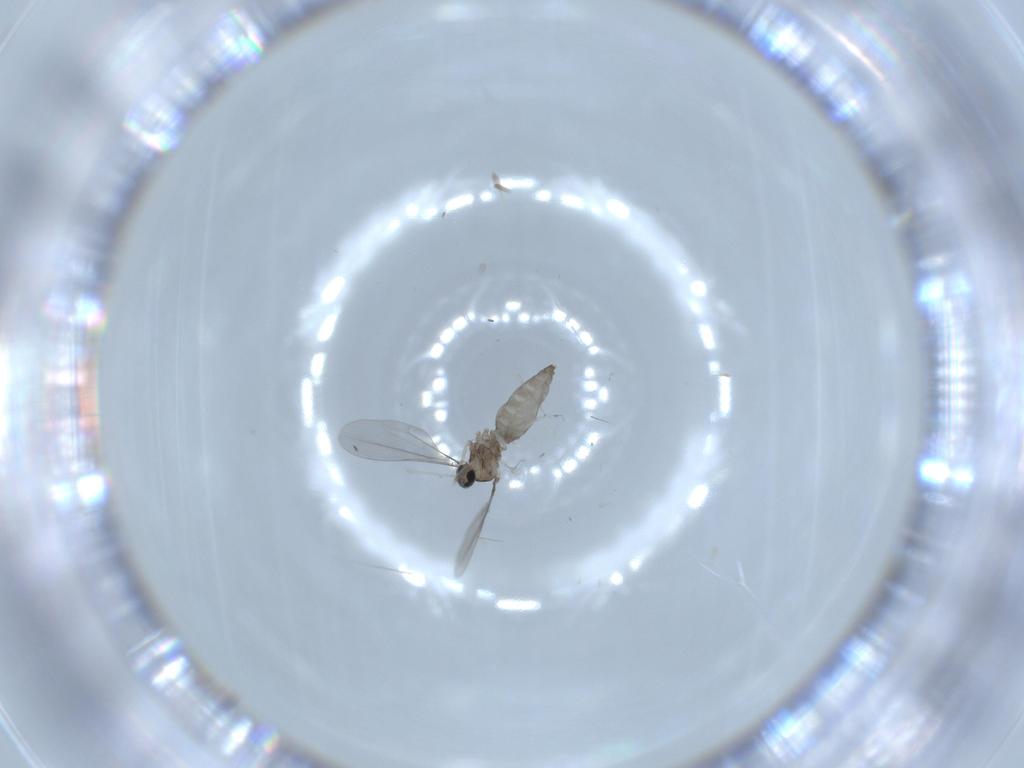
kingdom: Animalia
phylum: Arthropoda
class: Insecta
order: Diptera
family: Cecidomyiidae
